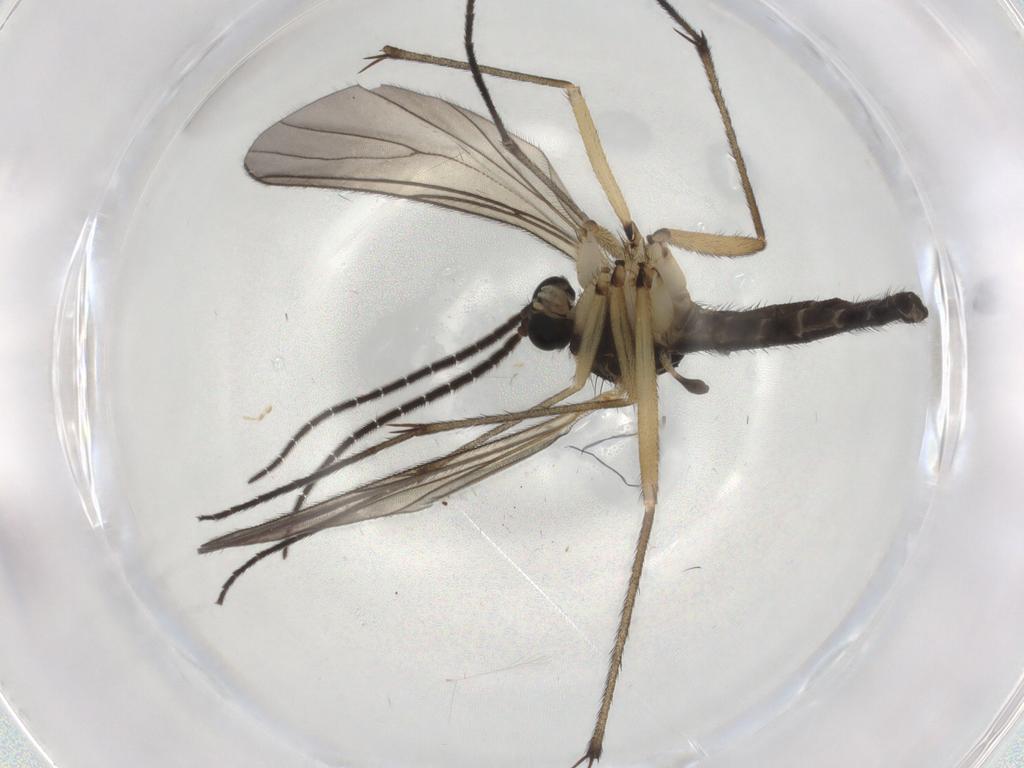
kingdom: Animalia
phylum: Arthropoda
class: Insecta
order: Diptera
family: Sciaridae
